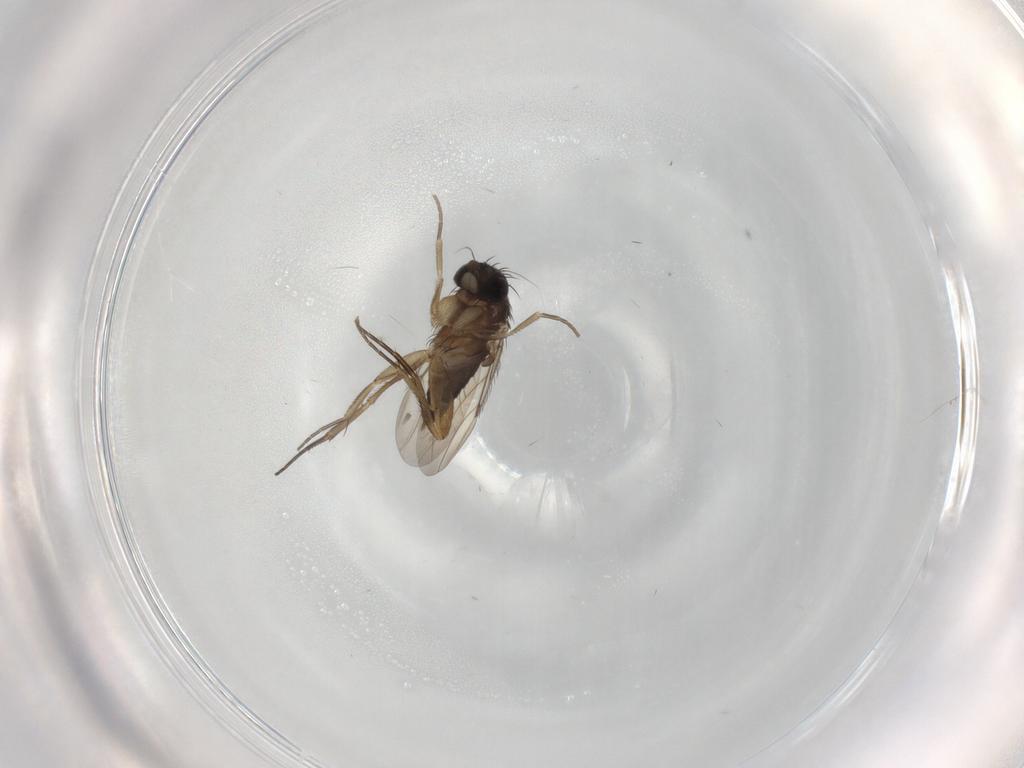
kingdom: Animalia
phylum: Arthropoda
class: Insecta
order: Diptera
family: Phoridae
